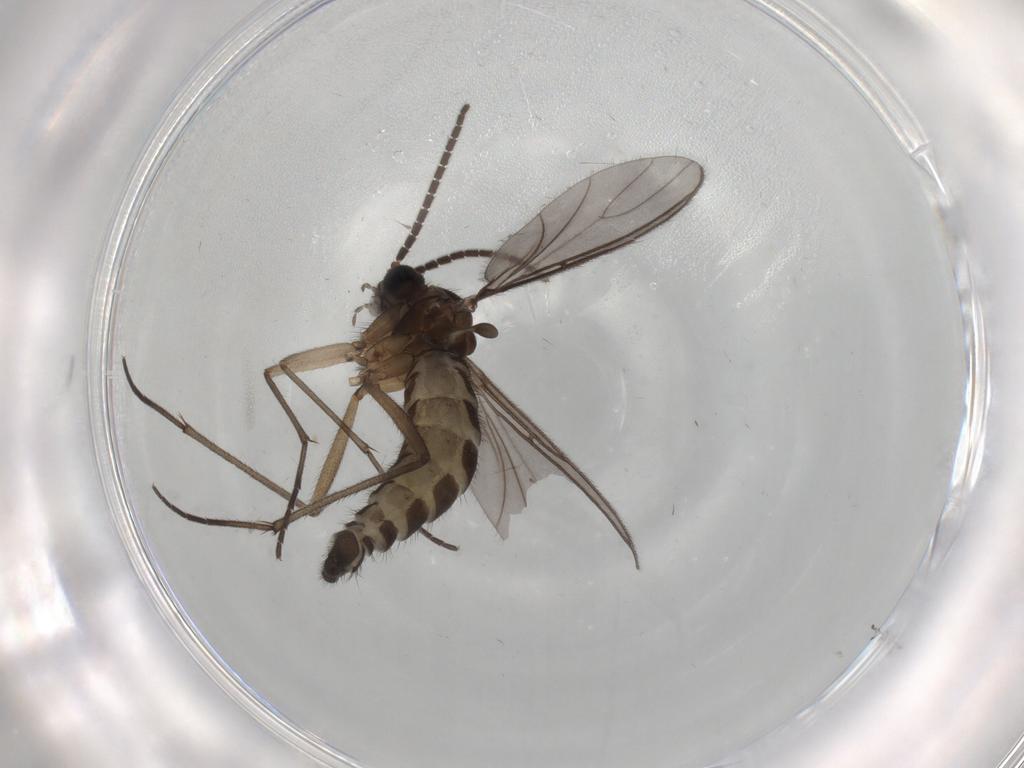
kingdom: Animalia
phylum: Arthropoda
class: Insecta
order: Diptera
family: Sciaridae
